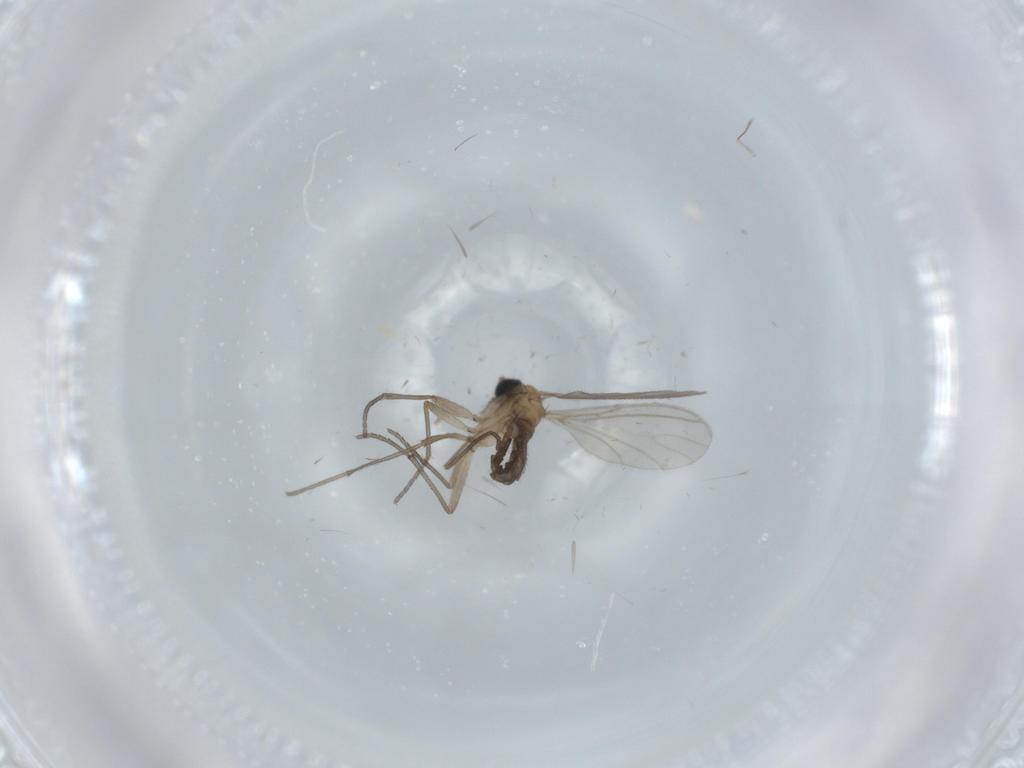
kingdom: Animalia
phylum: Arthropoda
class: Insecta
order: Diptera
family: Sciaridae
